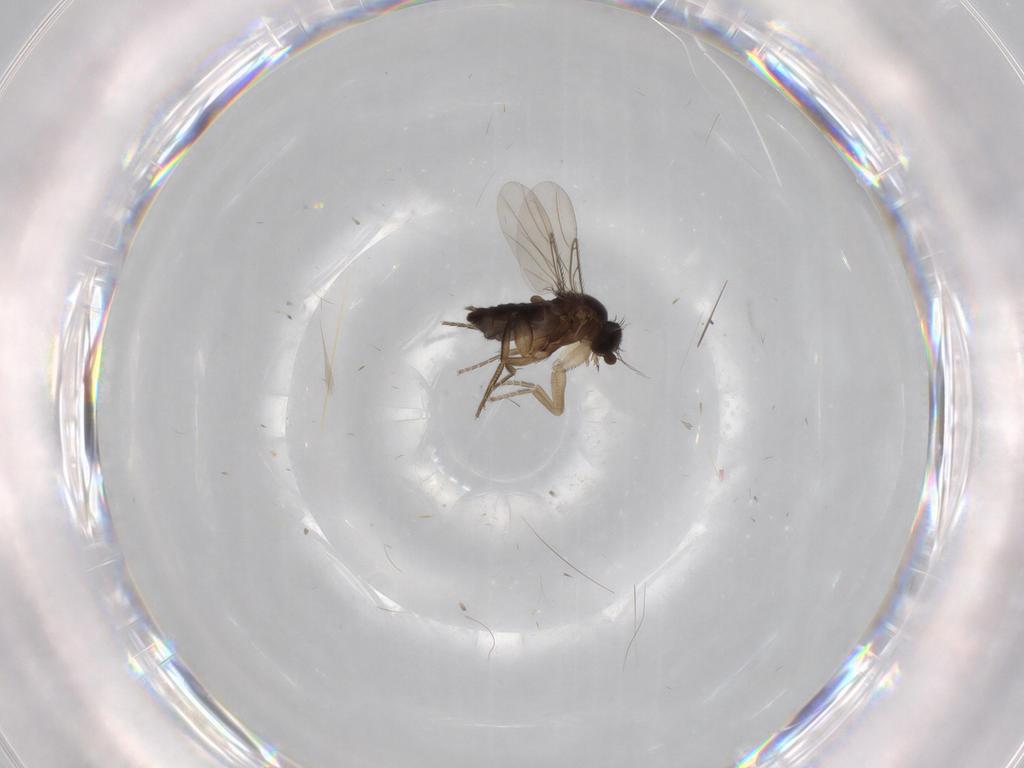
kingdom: Animalia
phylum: Arthropoda
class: Insecta
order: Diptera
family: Phoridae
